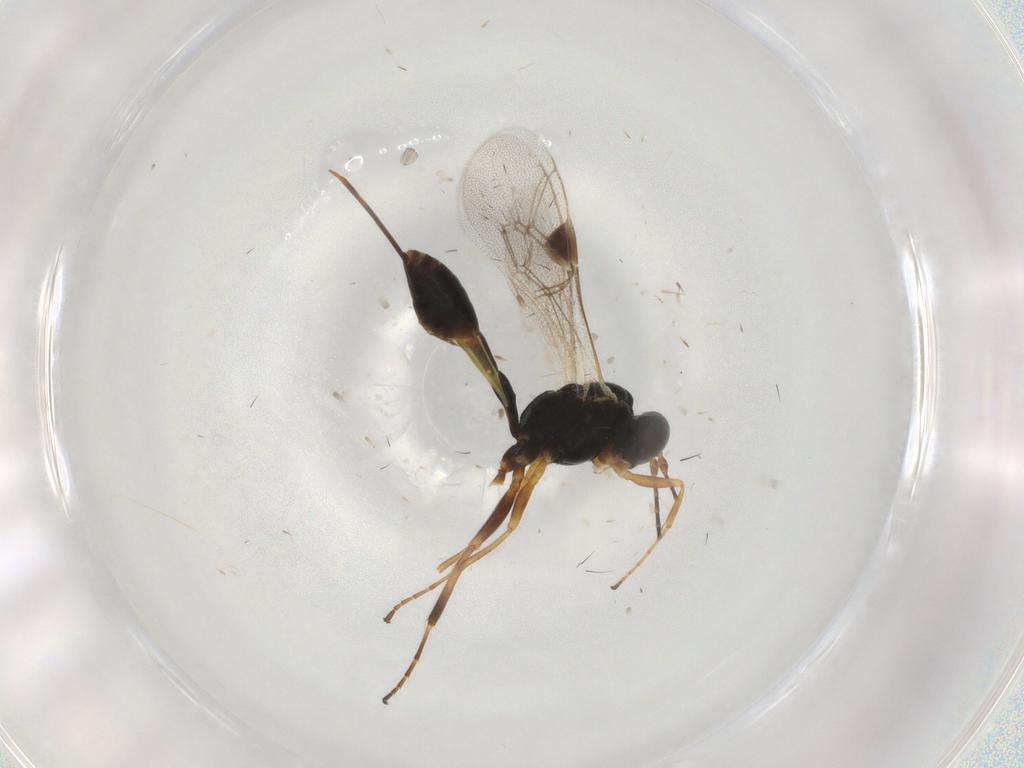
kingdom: Animalia
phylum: Arthropoda
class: Insecta
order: Hymenoptera
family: Ichneumonidae
